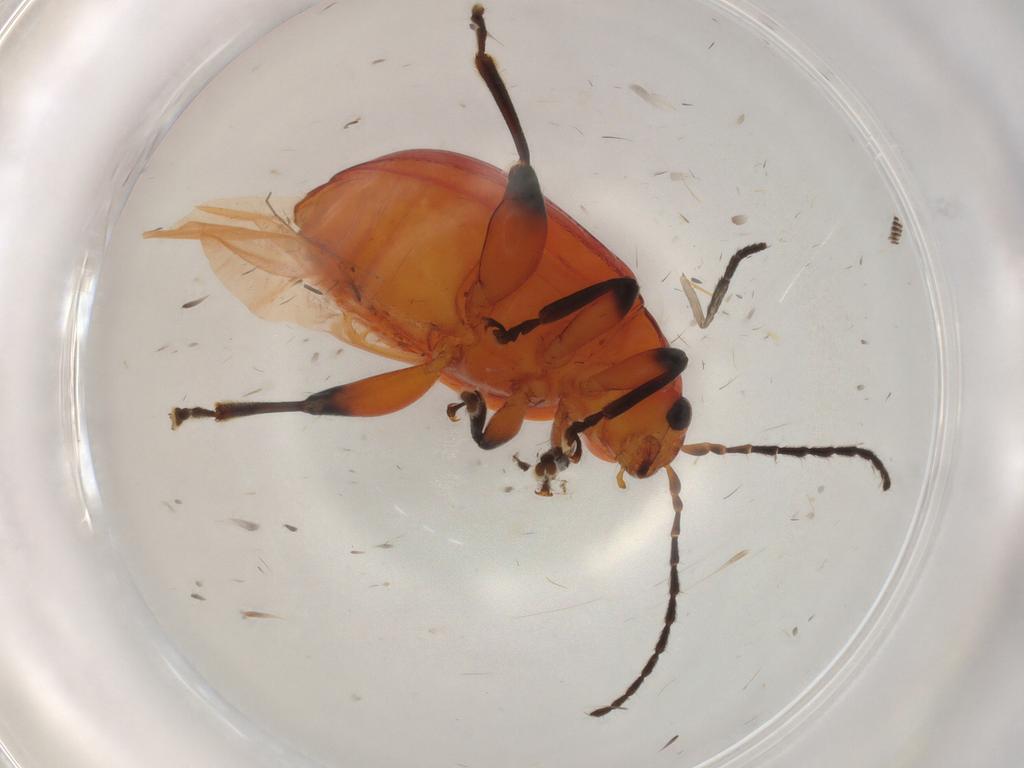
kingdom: Animalia
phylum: Arthropoda
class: Insecta
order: Coleoptera
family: Chrysomelidae
